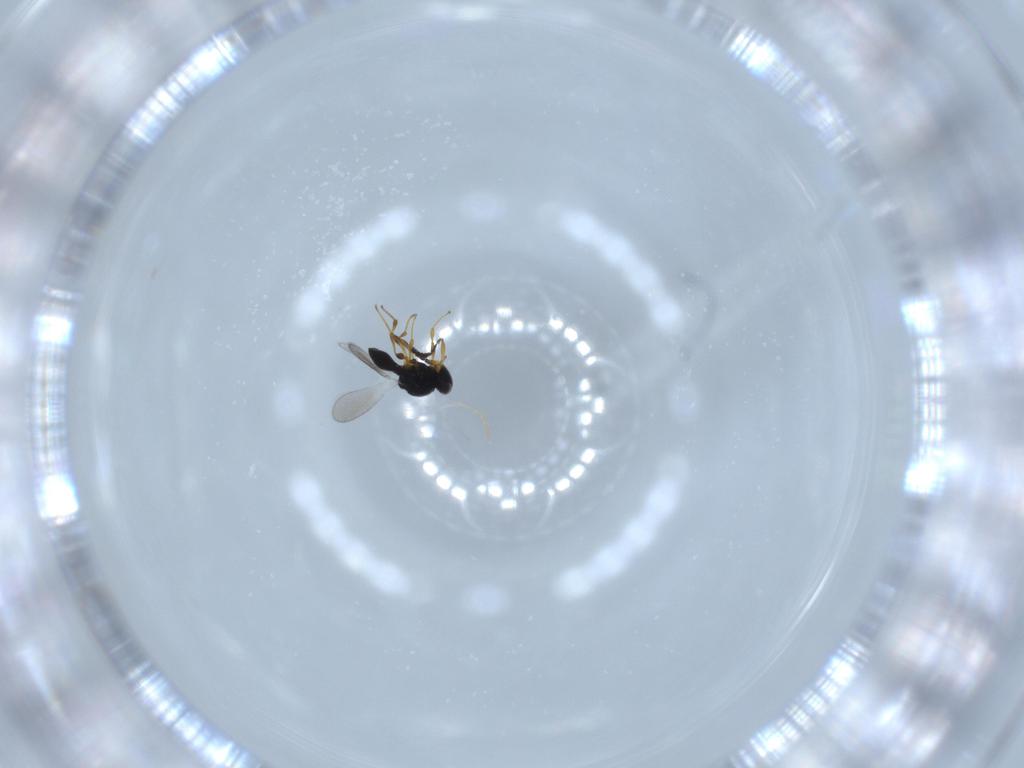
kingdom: Animalia
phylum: Arthropoda
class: Insecta
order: Hymenoptera
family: Platygastridae
